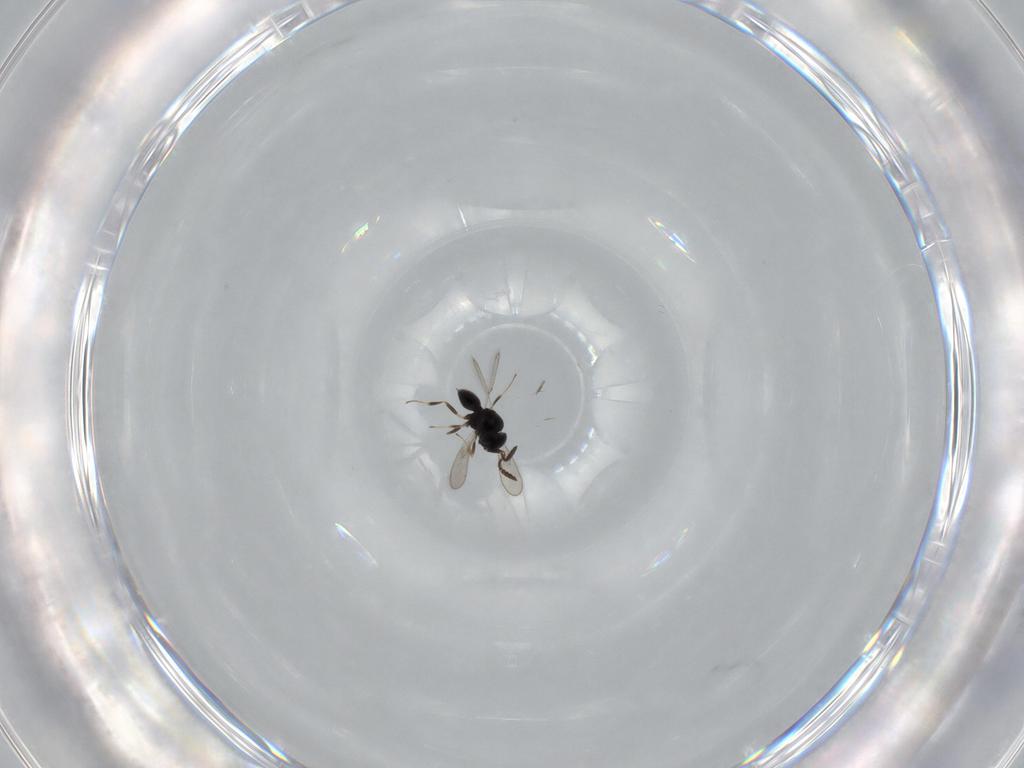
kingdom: Animalia
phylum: Arthropoda
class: Insecta
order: Hymenoptera
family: Scelionidae
